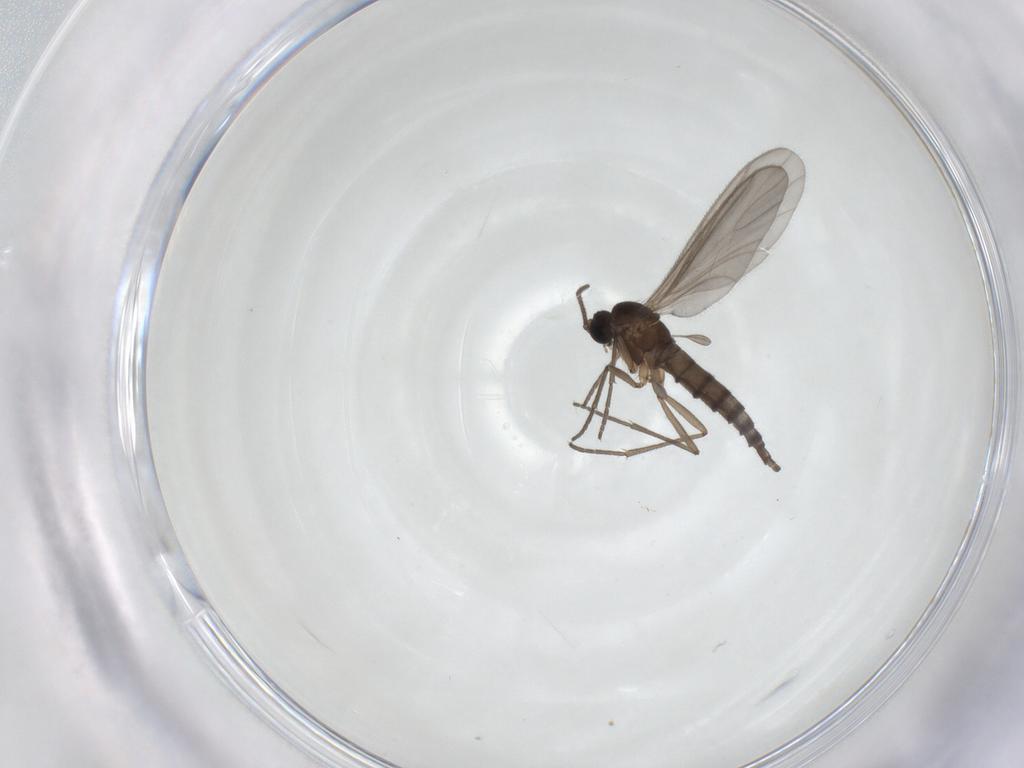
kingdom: Animalia
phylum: Arthropoda
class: Insecta
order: Diptera
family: Sciaridae
